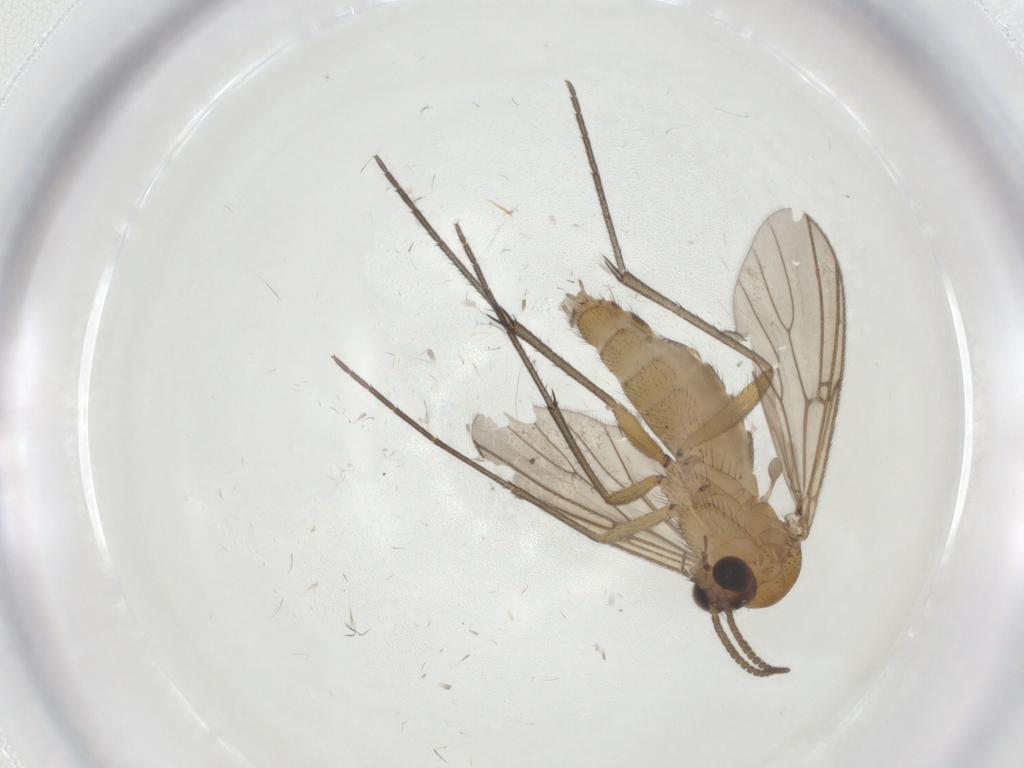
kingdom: Animalia
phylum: Arthropoda
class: Insecta
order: Diptera
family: Mycetophilidae
